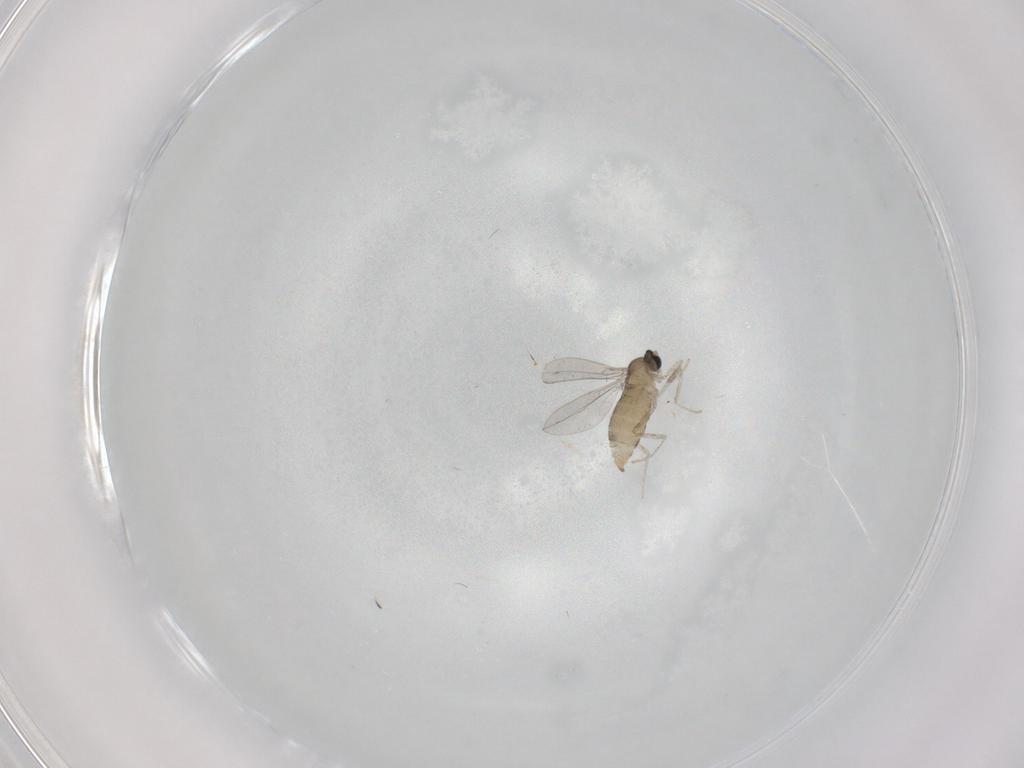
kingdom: Animalia
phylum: Arthropoda
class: Insecta
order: Diptera
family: Cecidomyiidae
